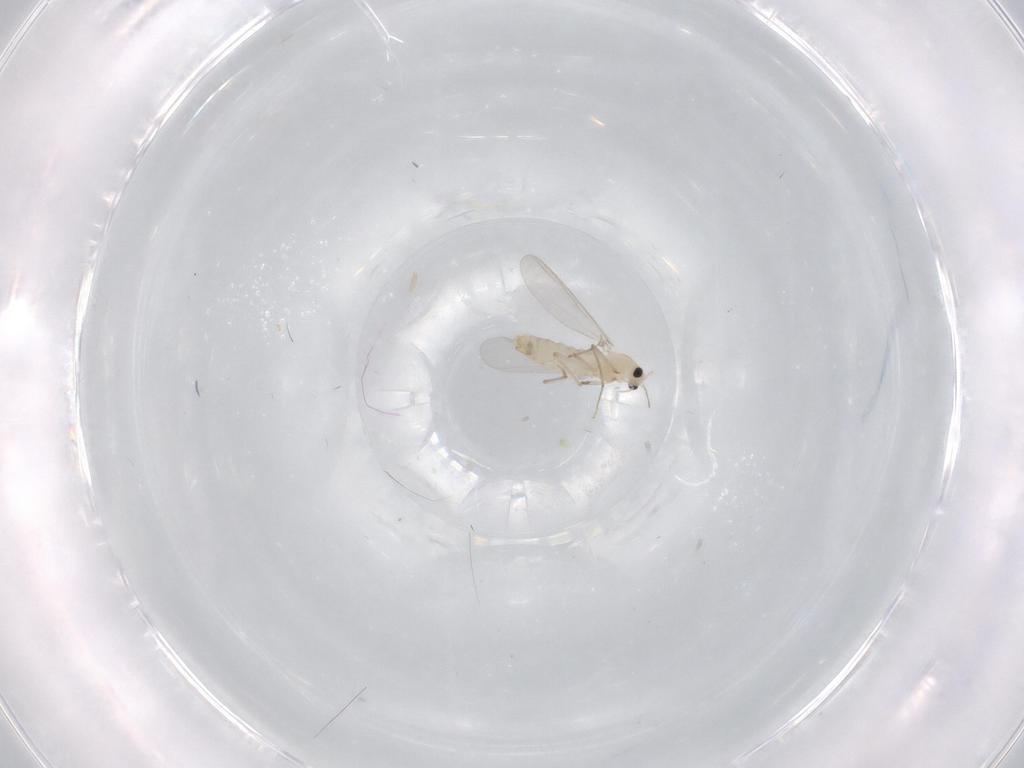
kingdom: Animalia
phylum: Arthropoda
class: Insecta
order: Diptera
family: Chironomidae
